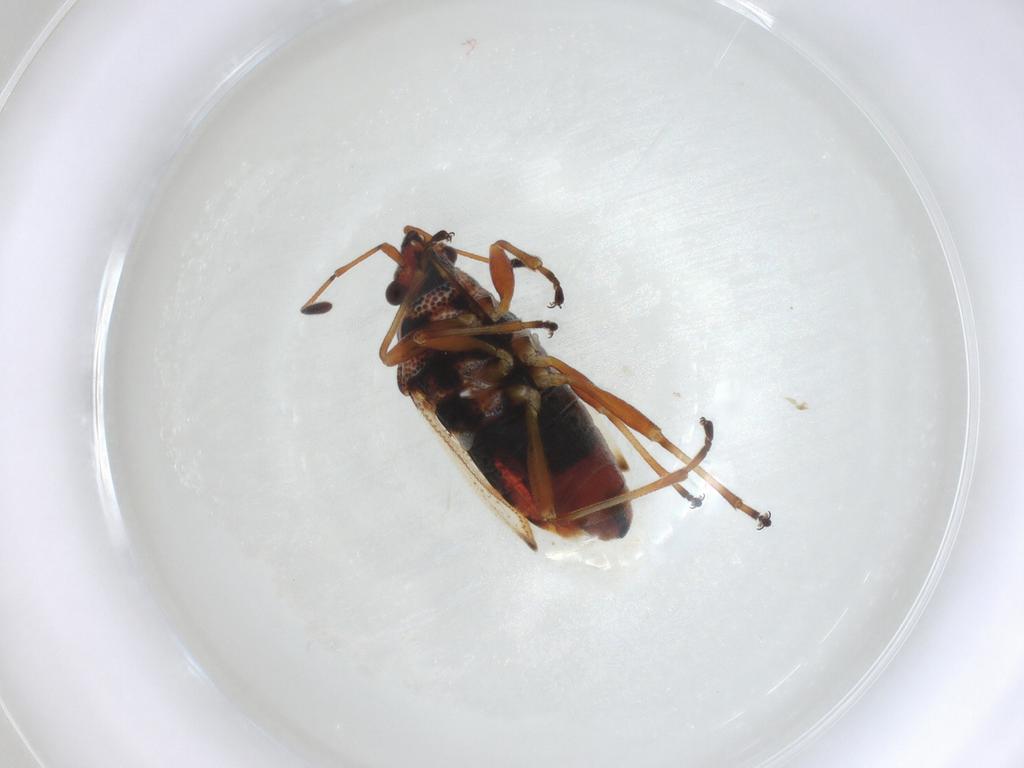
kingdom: Animalia
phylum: Arthropoda
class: Insecta
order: Hemiptera
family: Lygaeidae
